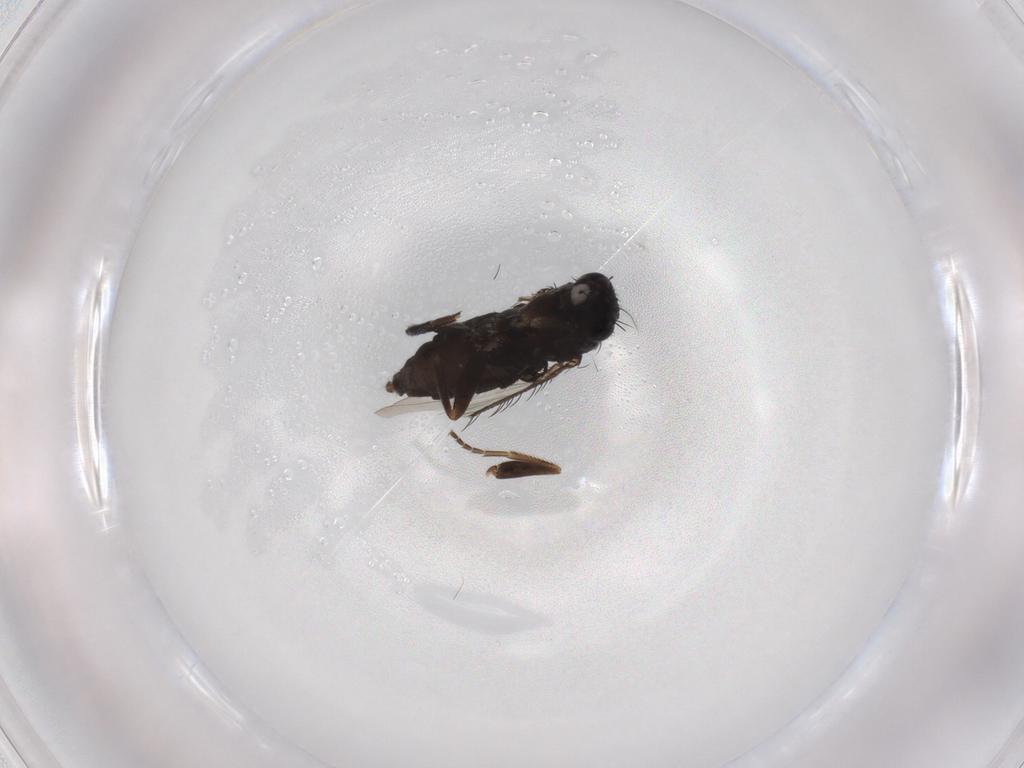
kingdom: Animalia
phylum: Arthropoda
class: Insecta
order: Diptera
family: Phoridae
